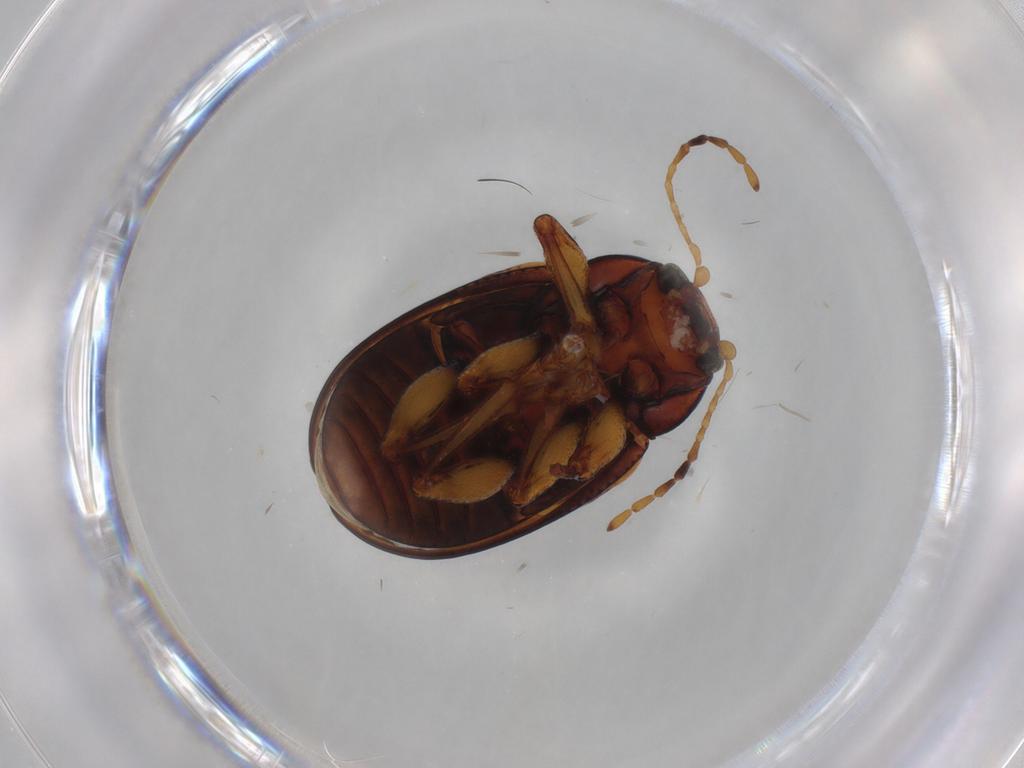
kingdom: Animalia
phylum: Arthropoda
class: Insecta
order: Coleoptera
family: Chrysomelidae
